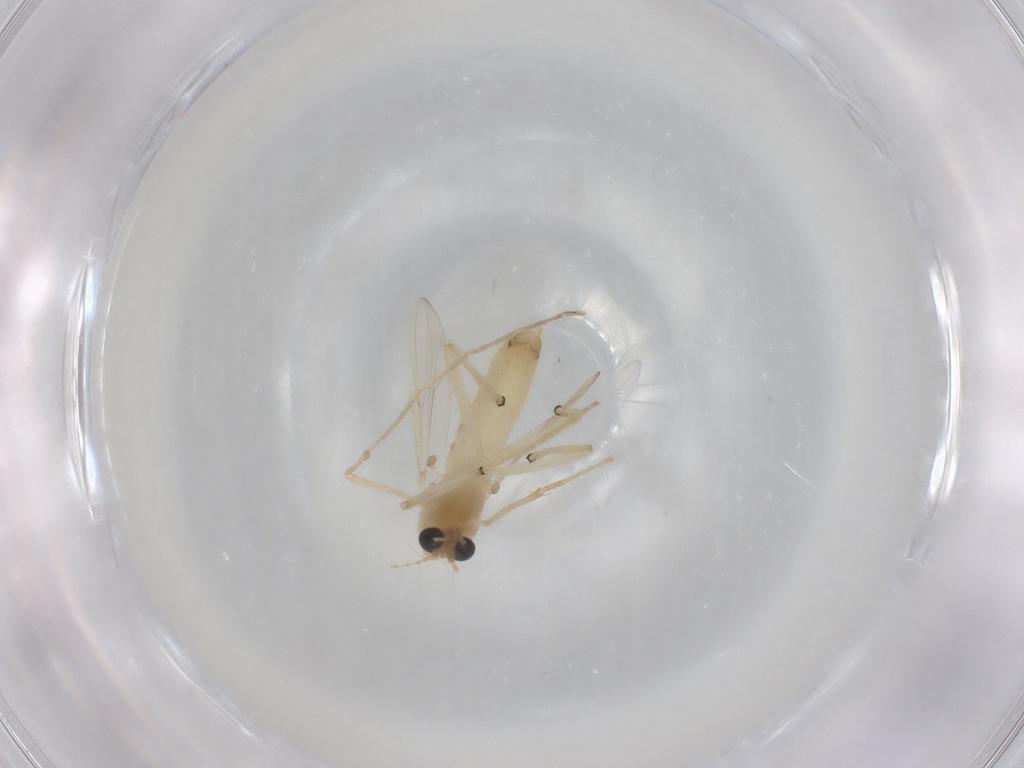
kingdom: Animalia
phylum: Arthropoda
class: Insecta
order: Diptera
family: Chironomidae
